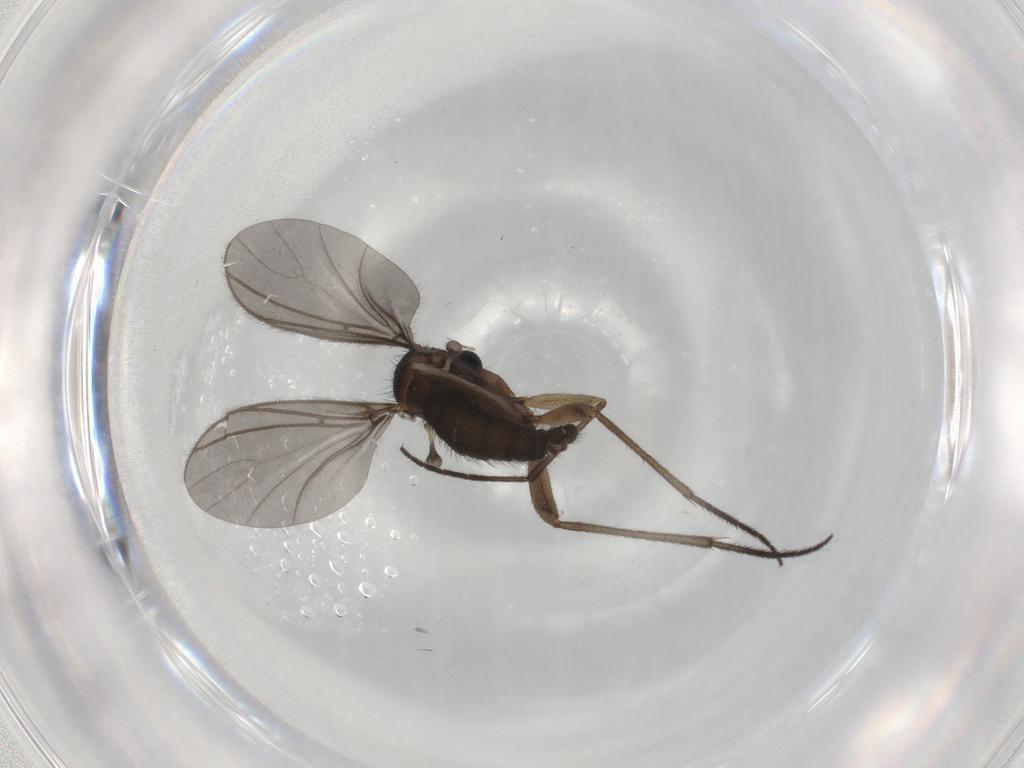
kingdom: Animalia
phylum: Arthropoda
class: Insecta
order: Diptera
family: Sciaridae
